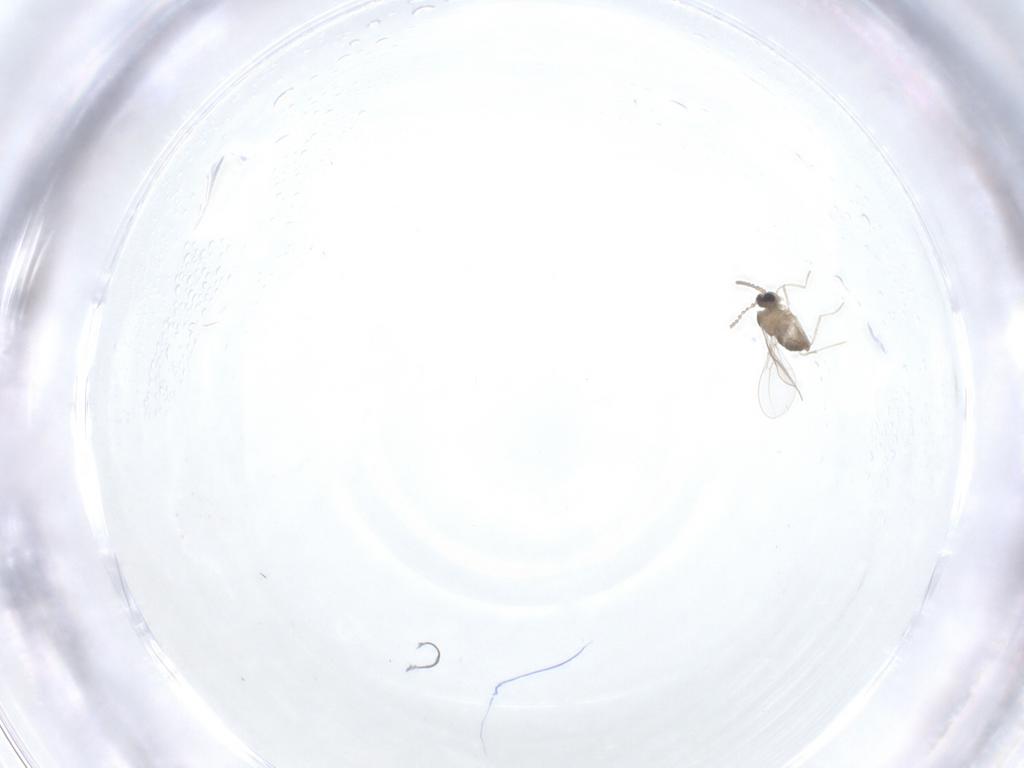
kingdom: Animalia
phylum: Arthropoda
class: Insecta
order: Diptera
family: Cecidomyiidae
